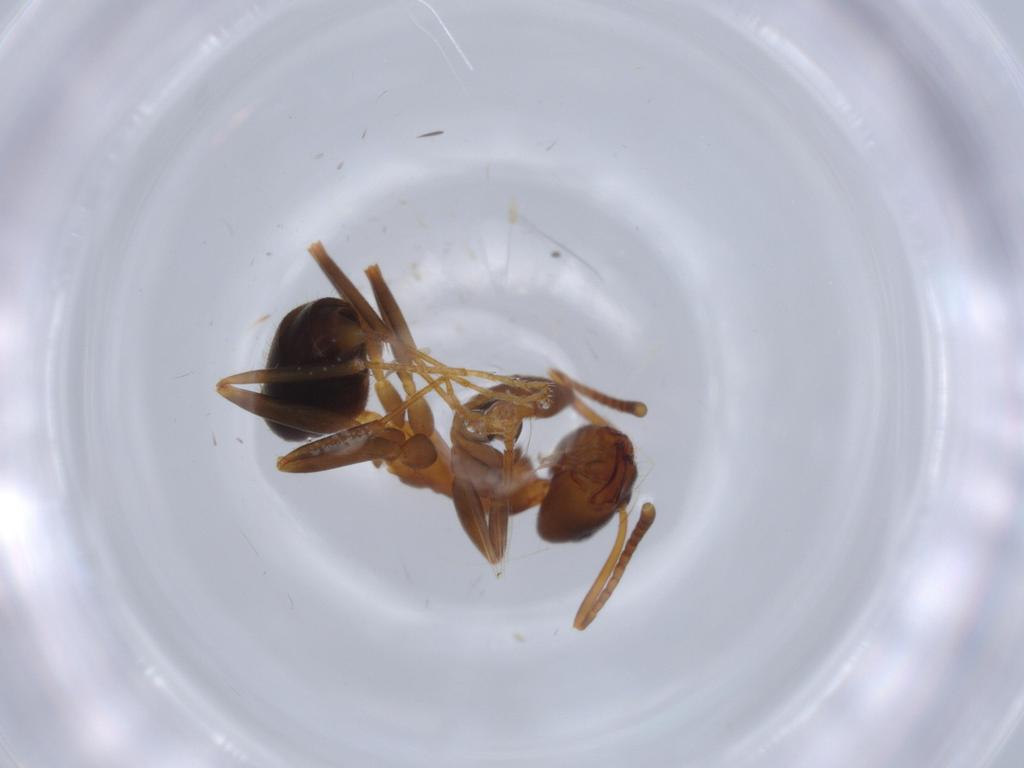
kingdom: Animalia
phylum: Arthropoda
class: Insecta
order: Hymenoptera
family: Formicidae
